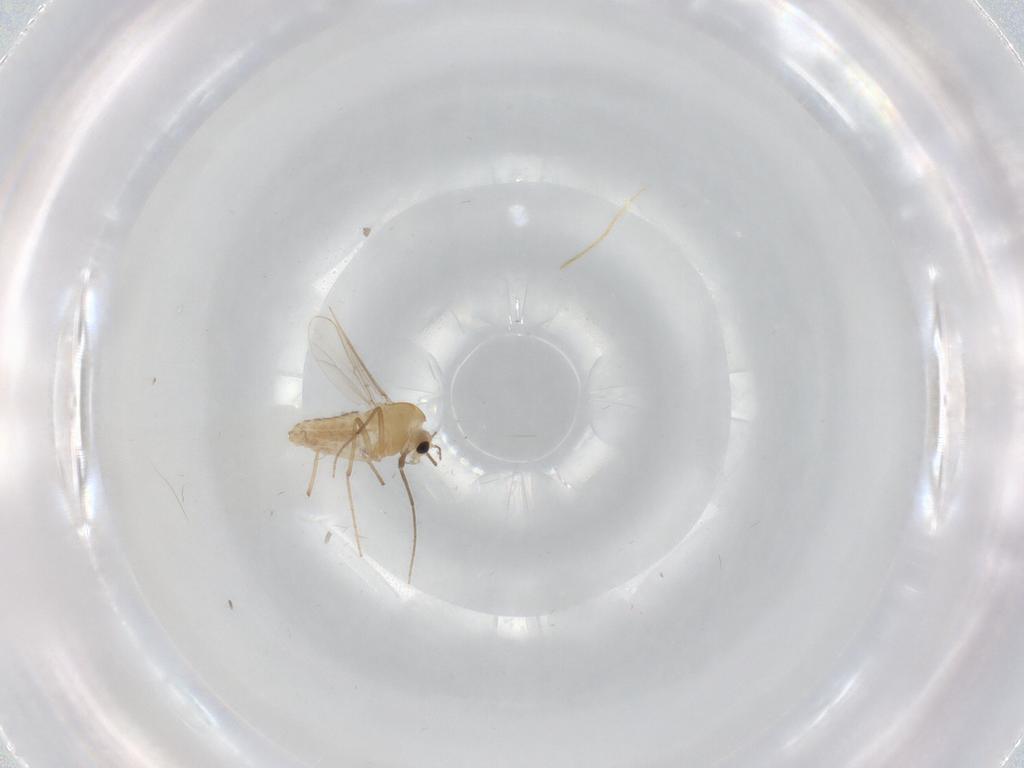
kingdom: Animalia
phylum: Arthropoda
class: Insecta
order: Diptera
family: Chironomidae
